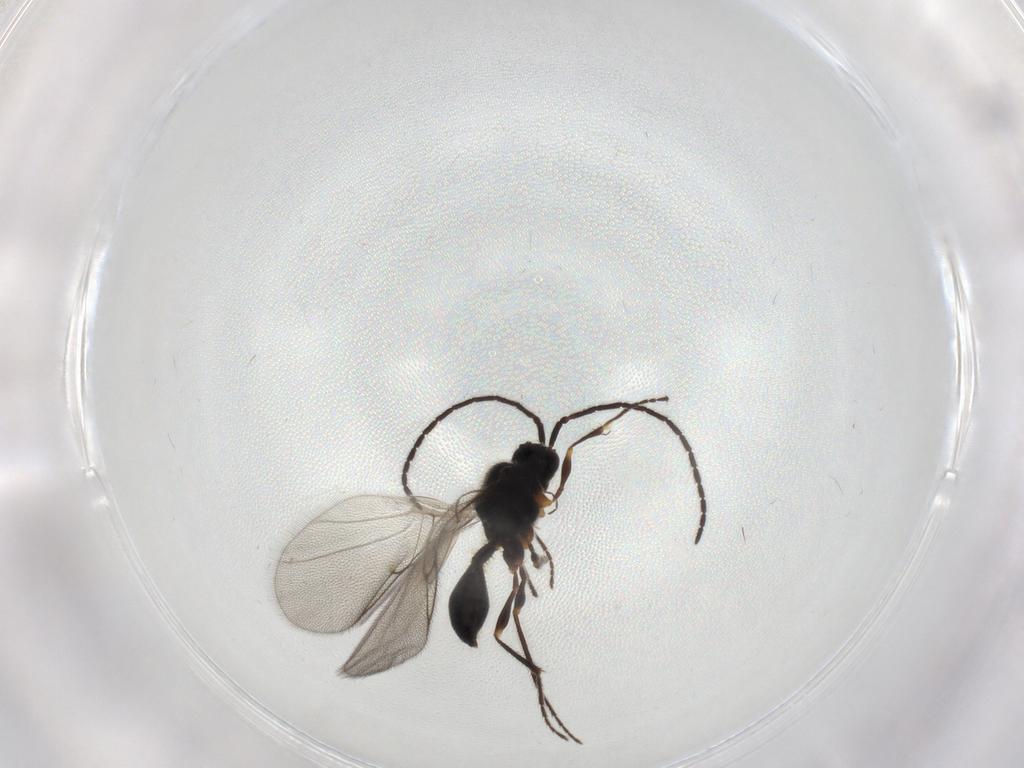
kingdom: Animalia
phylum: Arthropoda
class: Insecta
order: Hymenoptera
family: Diapriidae
